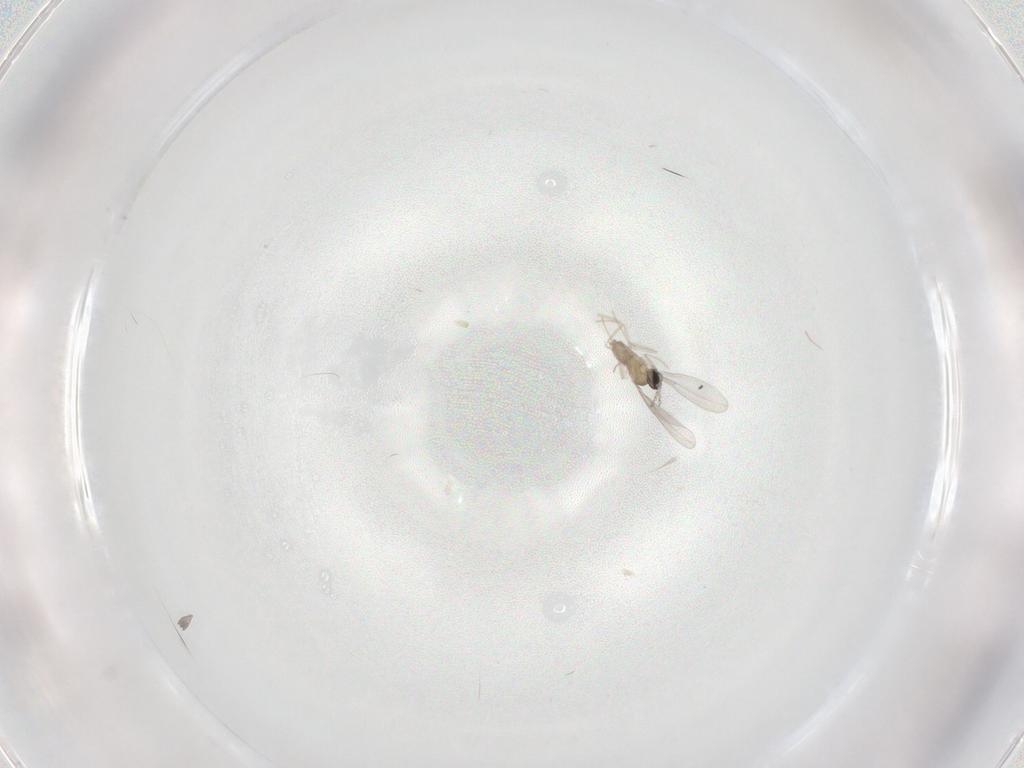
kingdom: Animalia
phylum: Arthropoda
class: Insecta
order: Diptera
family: Cecidomyiidae
